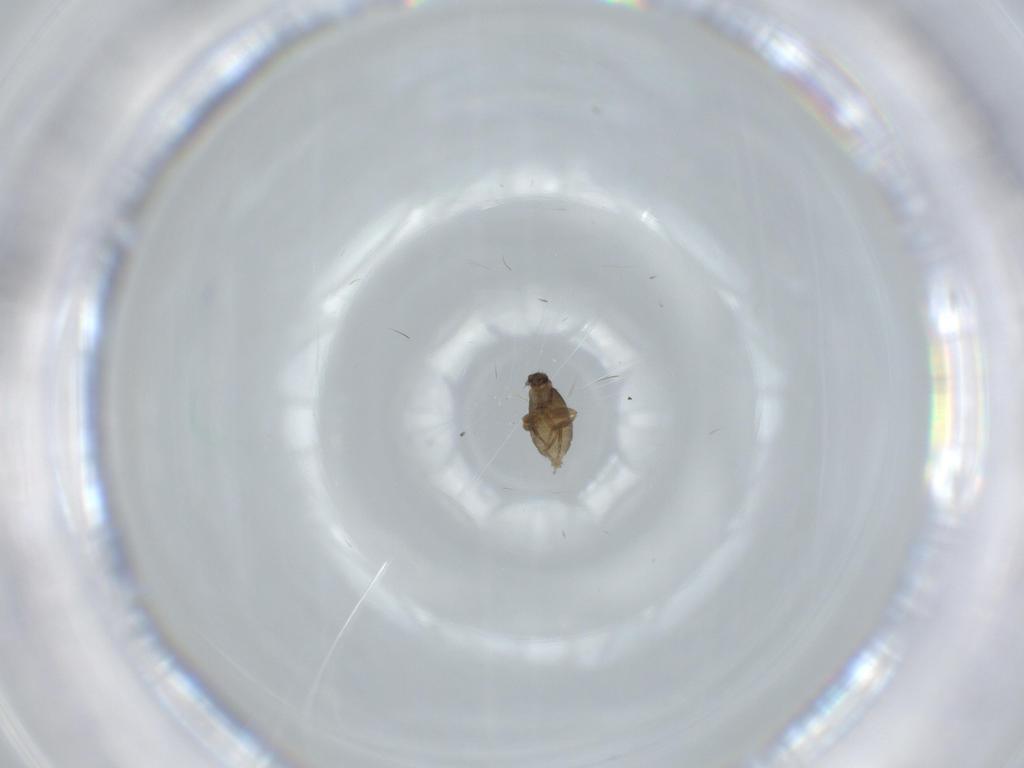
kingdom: Animalia
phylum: Arthropoda
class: Insecta
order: Diptera
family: Phoridae
